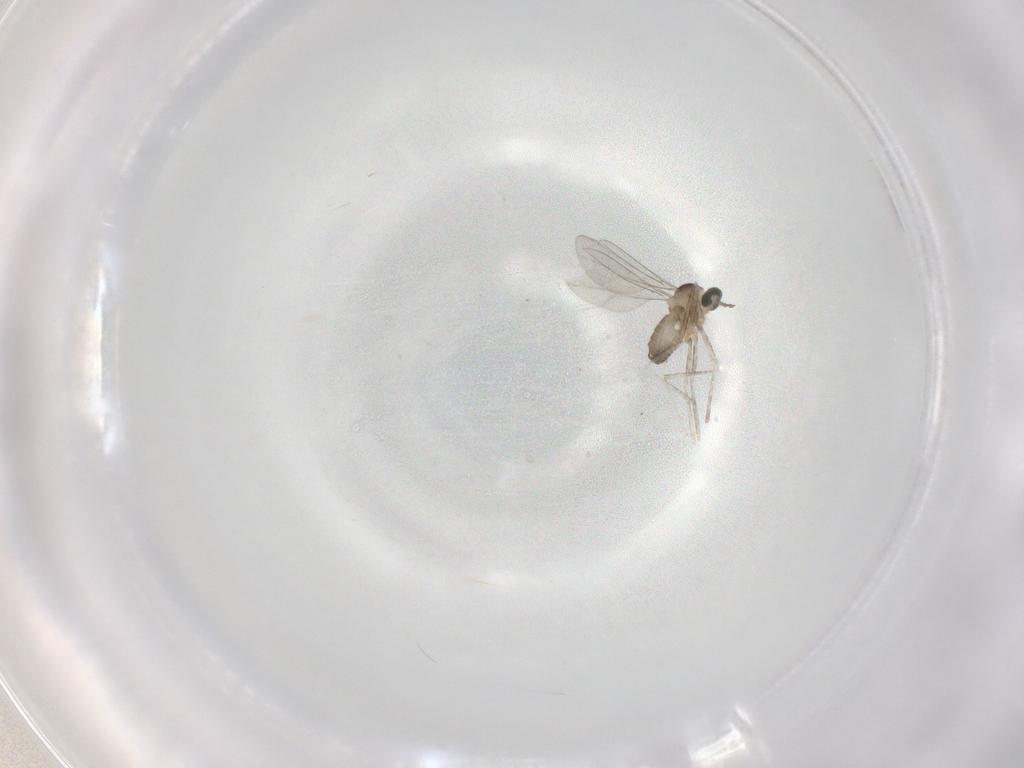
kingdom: Animalia
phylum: Arthropoda
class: Insecta
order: Diptera
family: Cecidomyiidae
